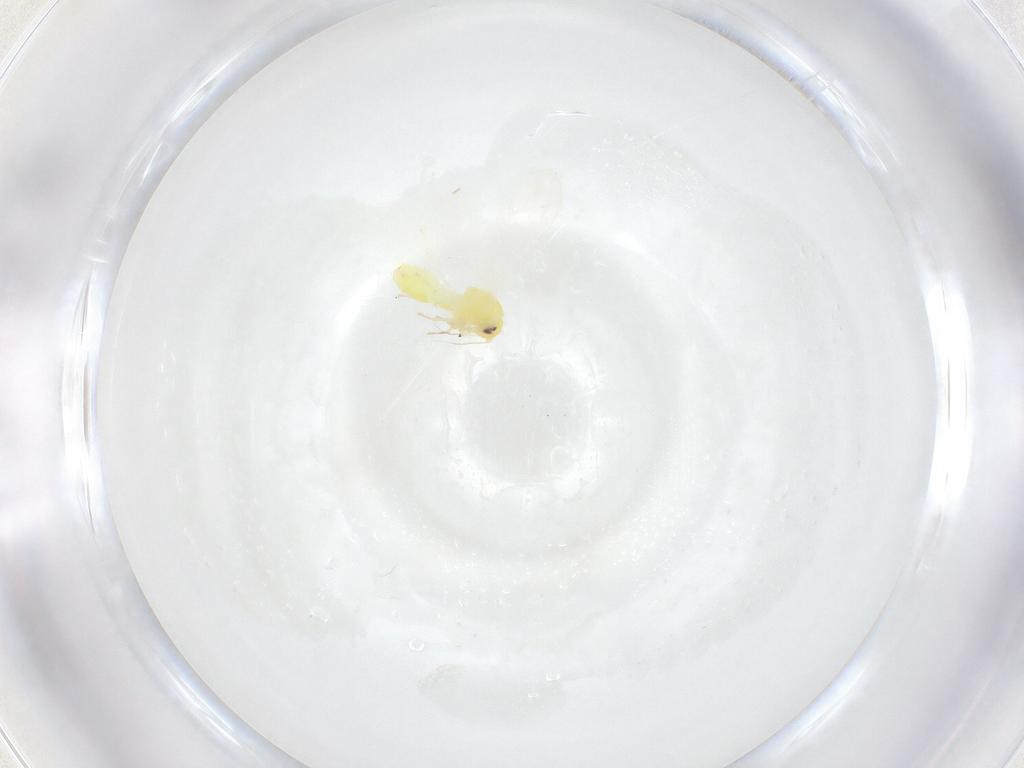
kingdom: Animalia
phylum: Arthropoda
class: Insecta
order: Hemiptera
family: Aleyrodidae
